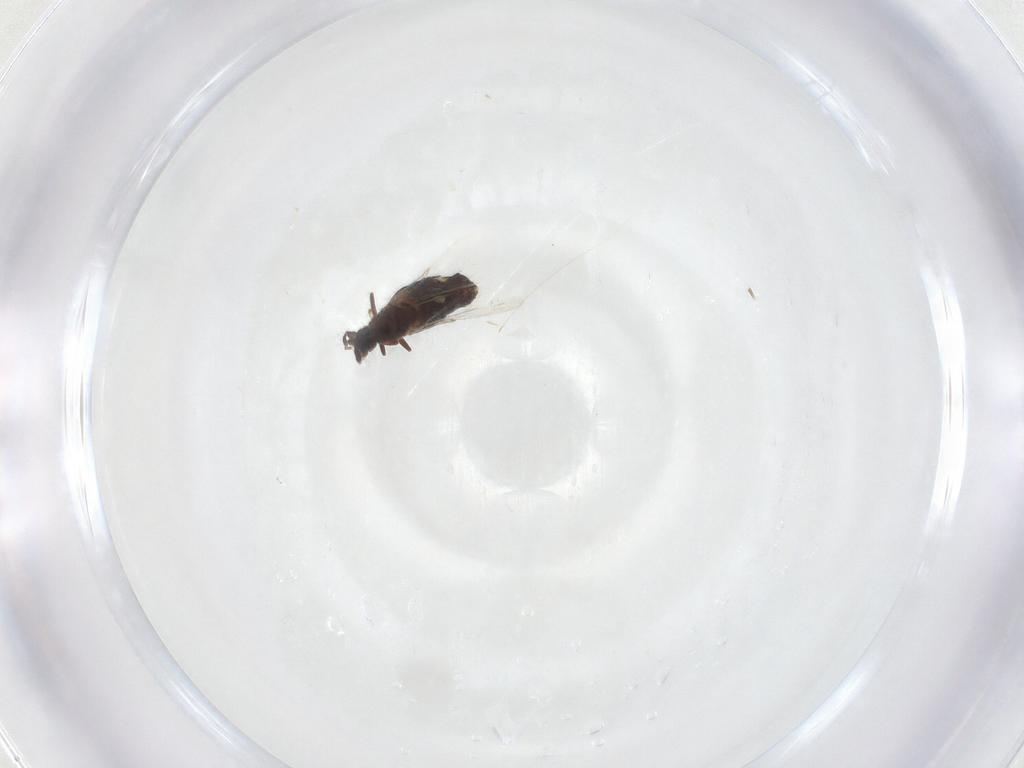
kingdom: Animalia
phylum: Arthropoda
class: Insecta
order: Diptera
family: Scatopsidae
